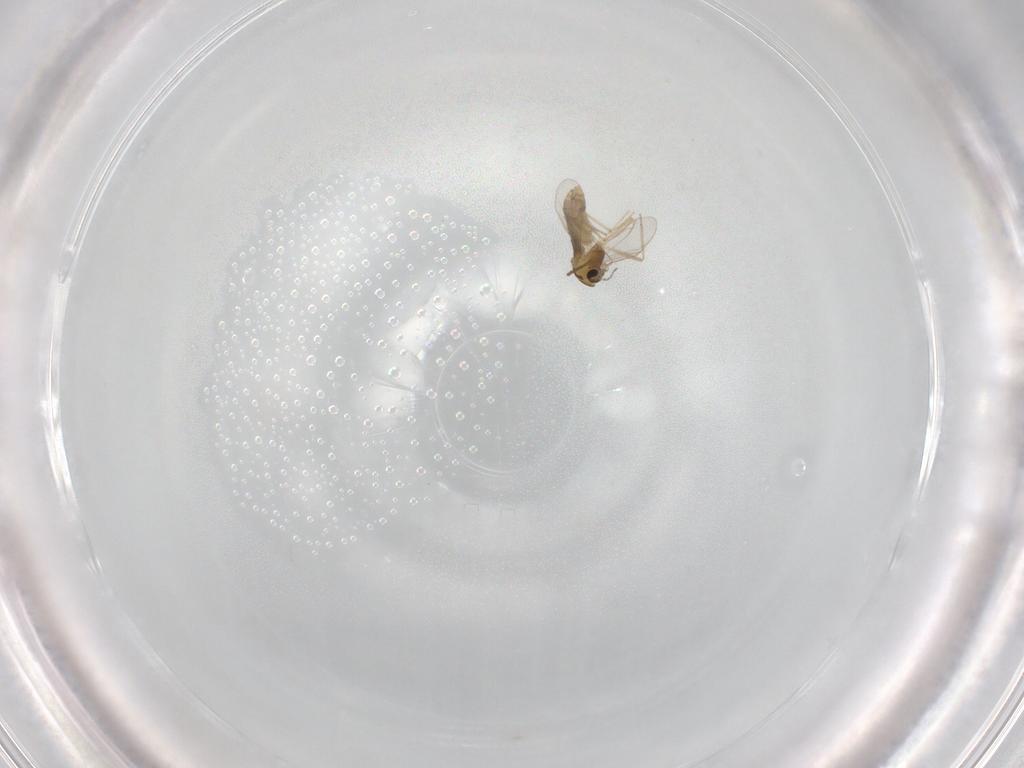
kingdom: Animalia
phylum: Arthropoda
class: Insecta
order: Diptera
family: Chironomidae
